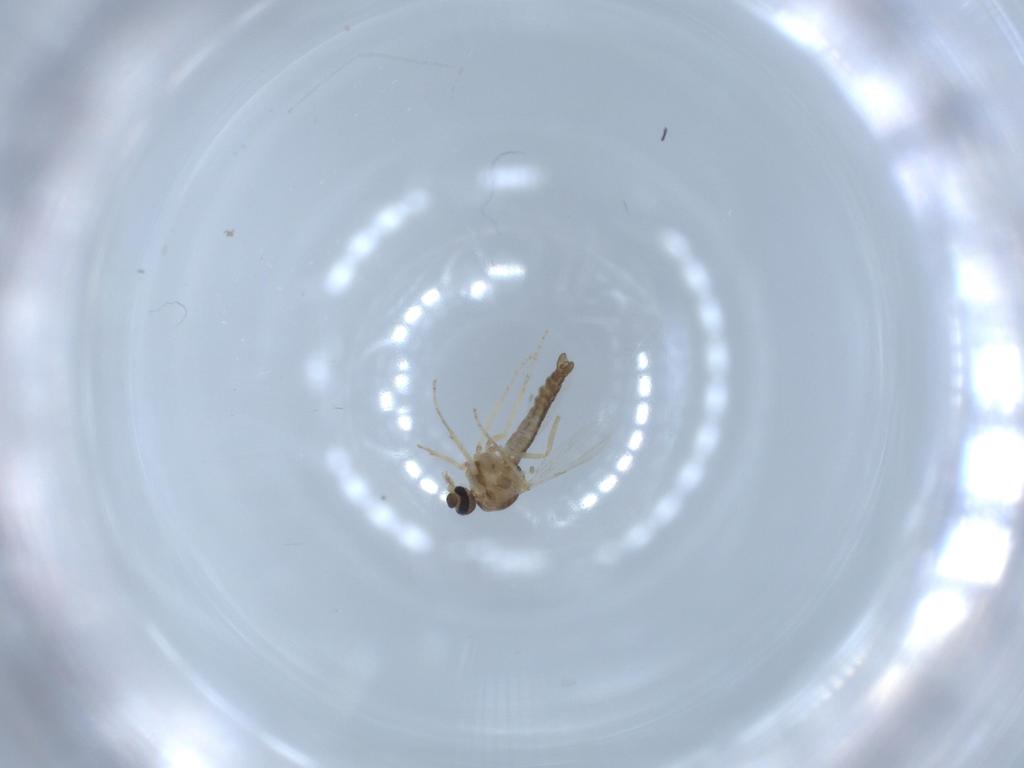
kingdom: Animalia
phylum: Arthropoda
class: Insecta
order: Diptera
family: Ceratopogonidae
